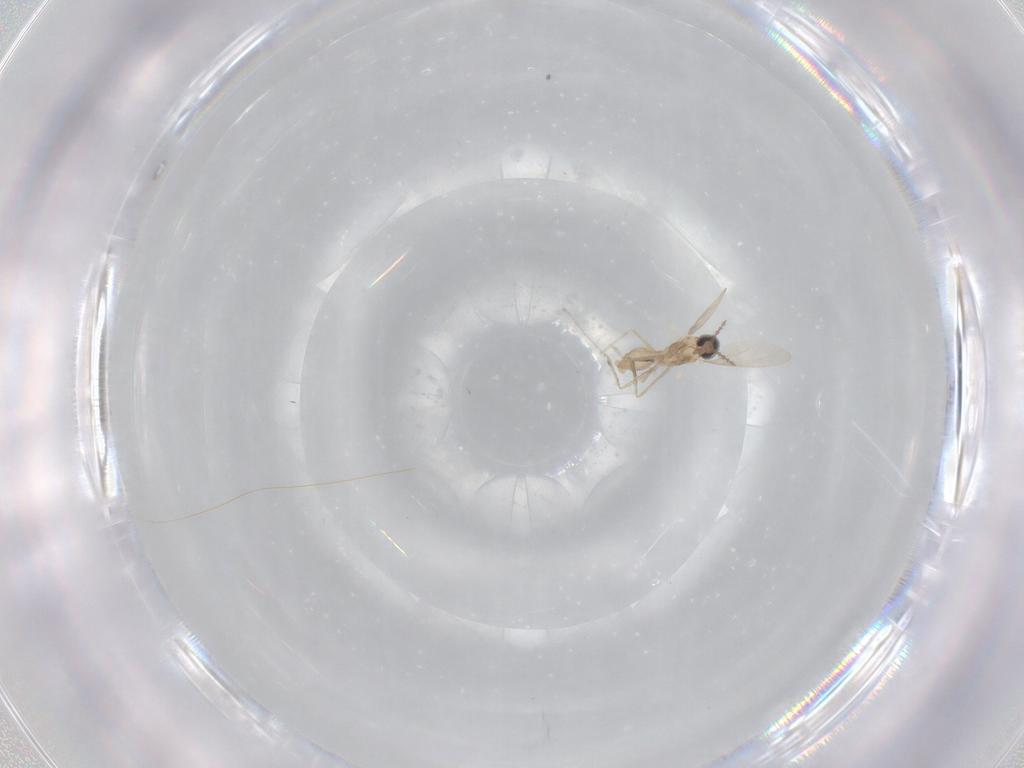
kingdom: Animalia
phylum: Arthropoda
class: Insecta
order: Diptera
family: Cecidomyiidae
